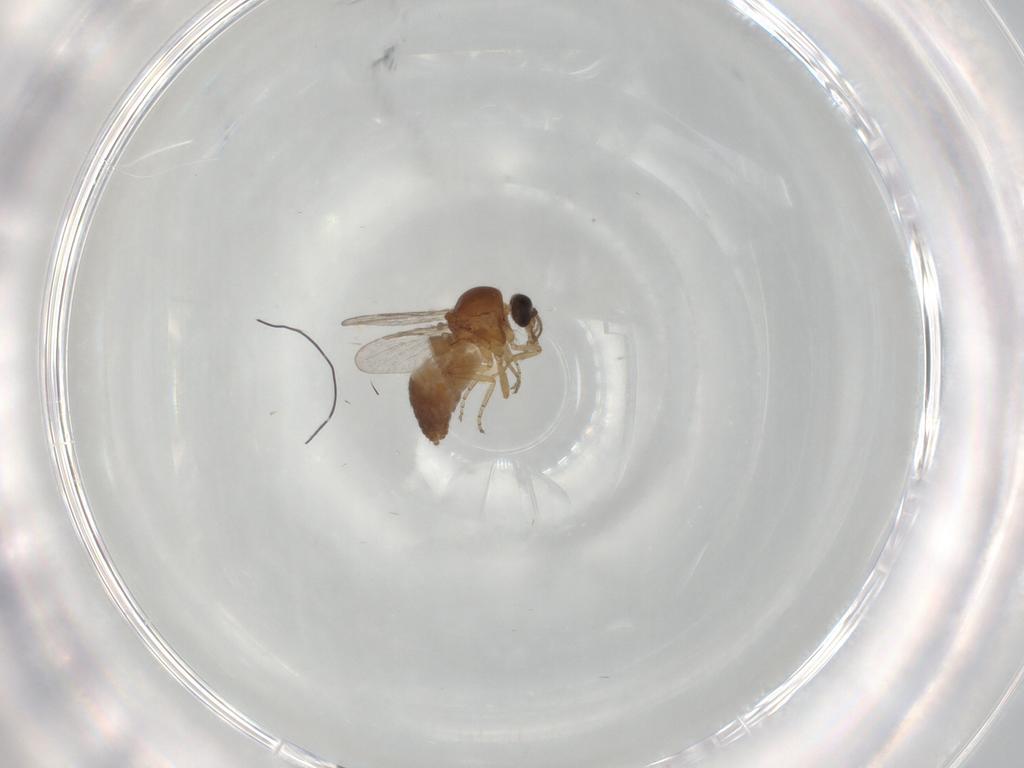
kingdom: Animalia
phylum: Arthropoda
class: Insecta
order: Diptera
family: Ceratopogonidae
